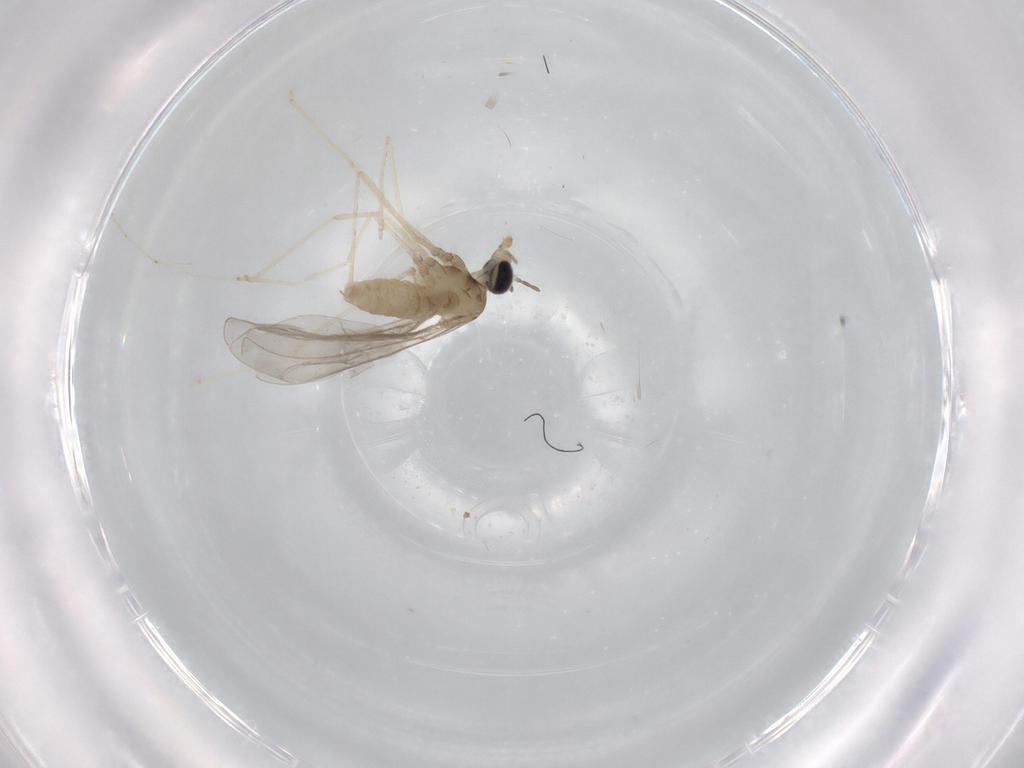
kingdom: Animalia
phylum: Arthropoda
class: Insecta
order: Diptera
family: Cecidomyiidae
